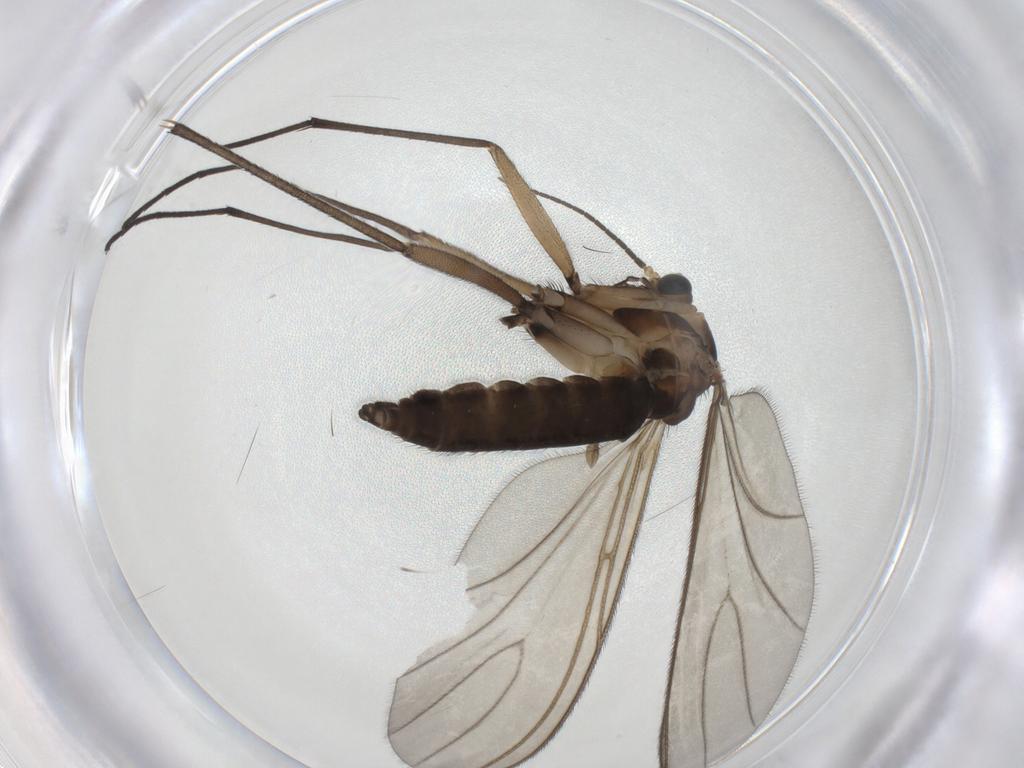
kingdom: Animalia
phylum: Arthropoda
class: Insecta
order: Diptera
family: Sciaridae
